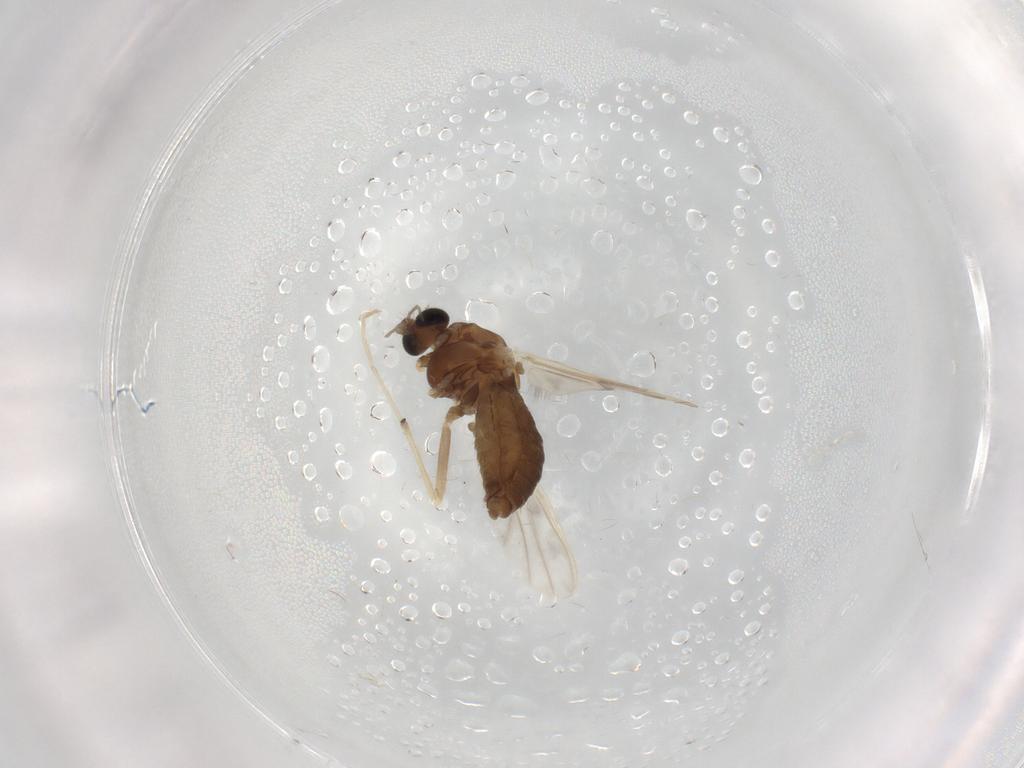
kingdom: Animalia
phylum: Arthropoda
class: Insecta
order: Diptera
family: Chironomidae
